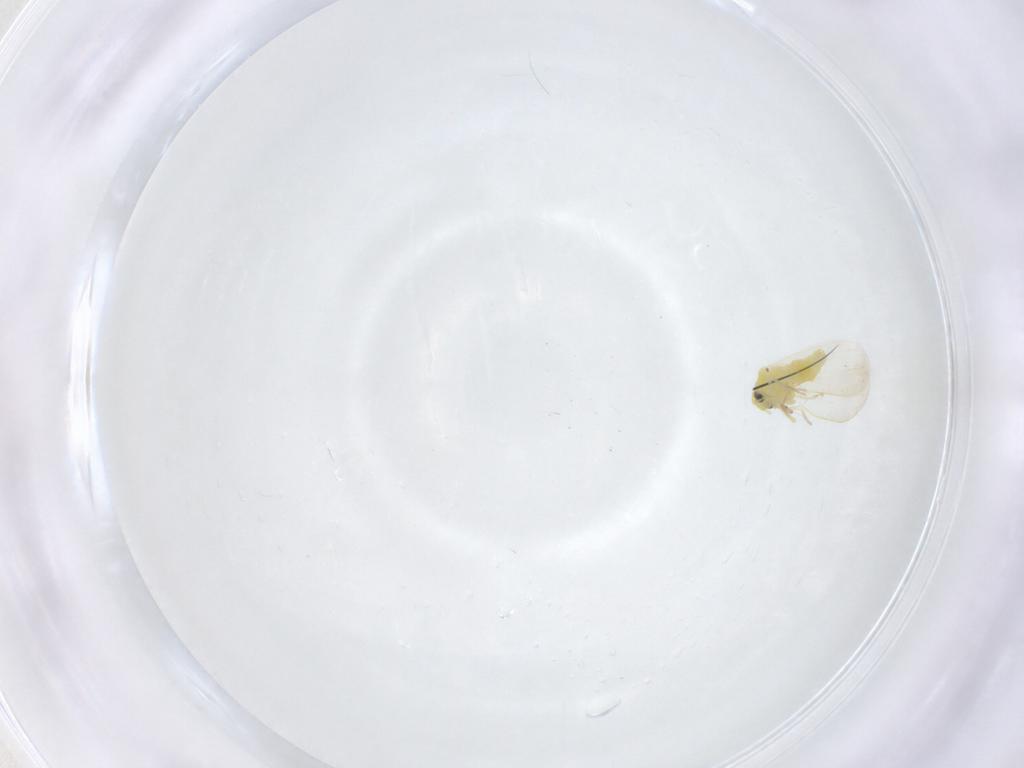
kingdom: Animalia
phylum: Arthropoda
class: Insecta
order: Hemiptera
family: Aleyrodidae
